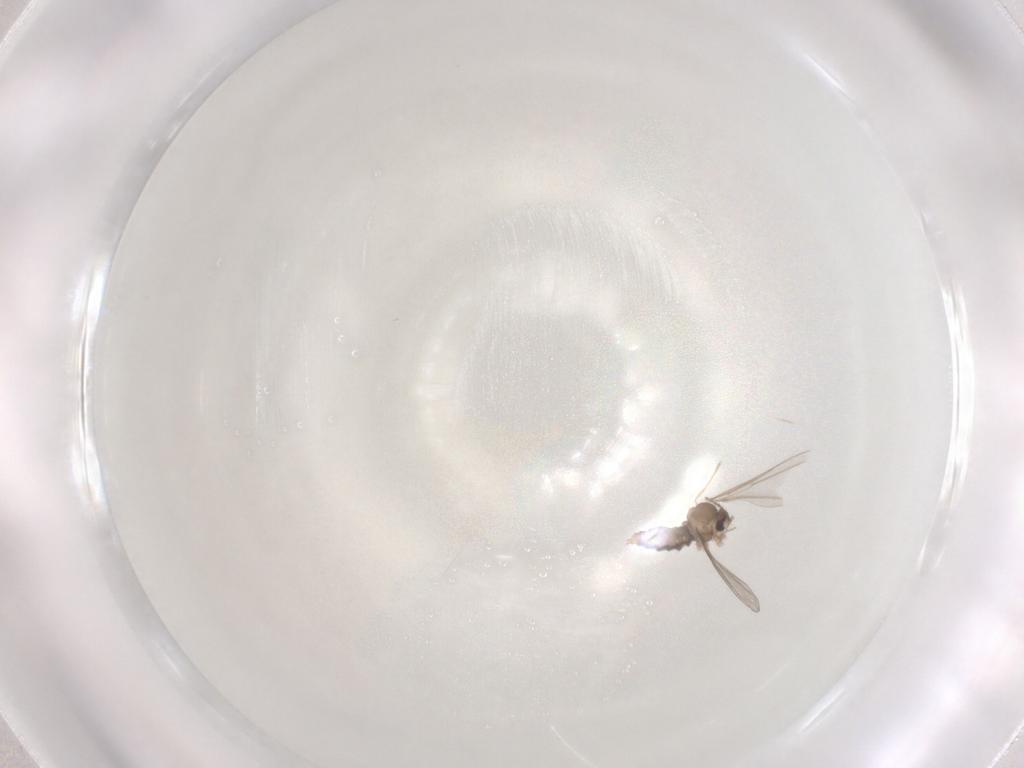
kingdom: Animalia
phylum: Arthropoda
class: Insecta
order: Diptera
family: Cecidomyiidae
